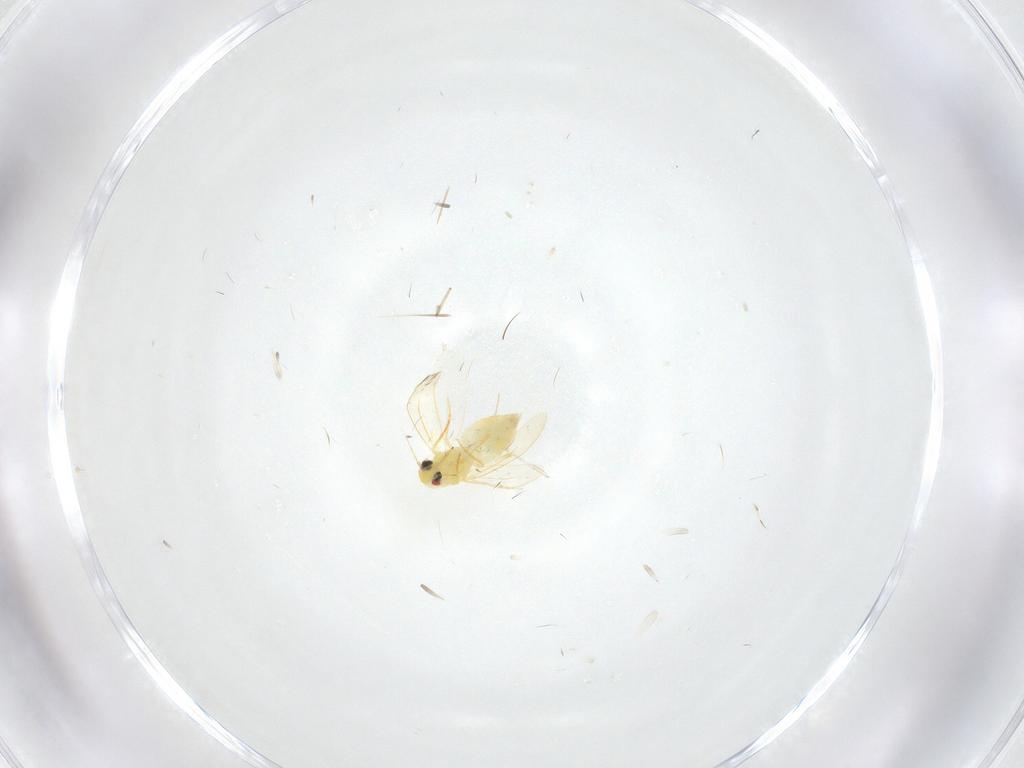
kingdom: Animalia
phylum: Arthropoda
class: Insecta
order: Hemiptera
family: Aleyrodidae
